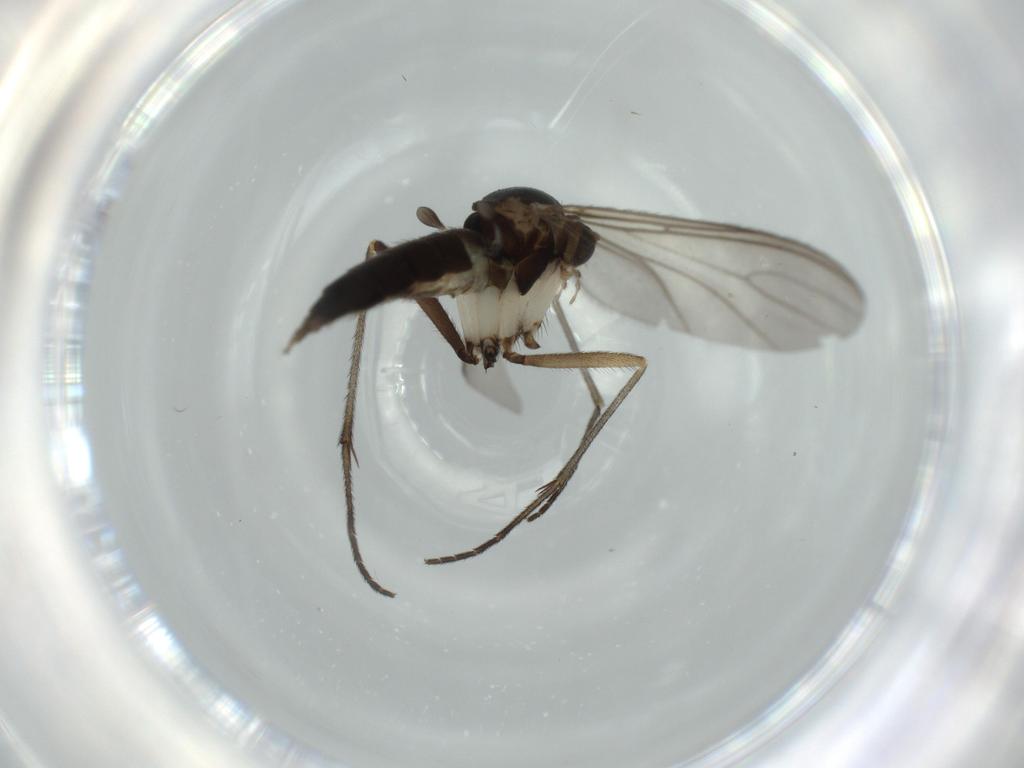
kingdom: Animalia
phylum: Arthropoda
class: Insecta
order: Diptera
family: Sciaridae
